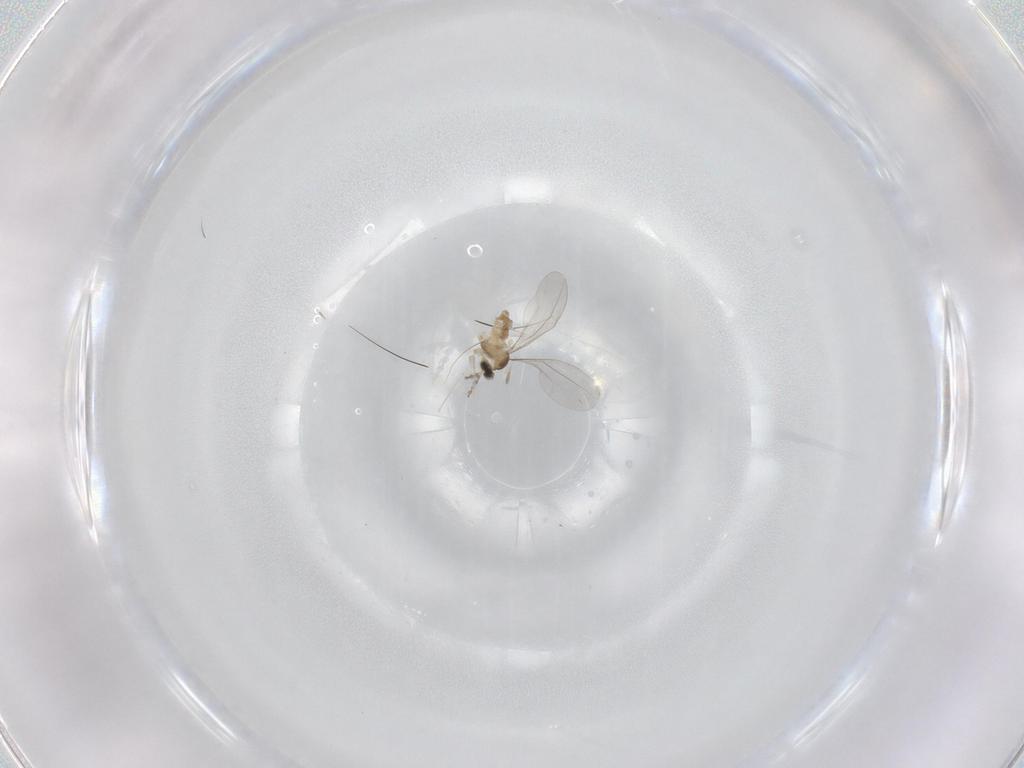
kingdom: Animalia
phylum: Arthropoda
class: Insecta
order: Diptera
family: Cecidomyiidae
